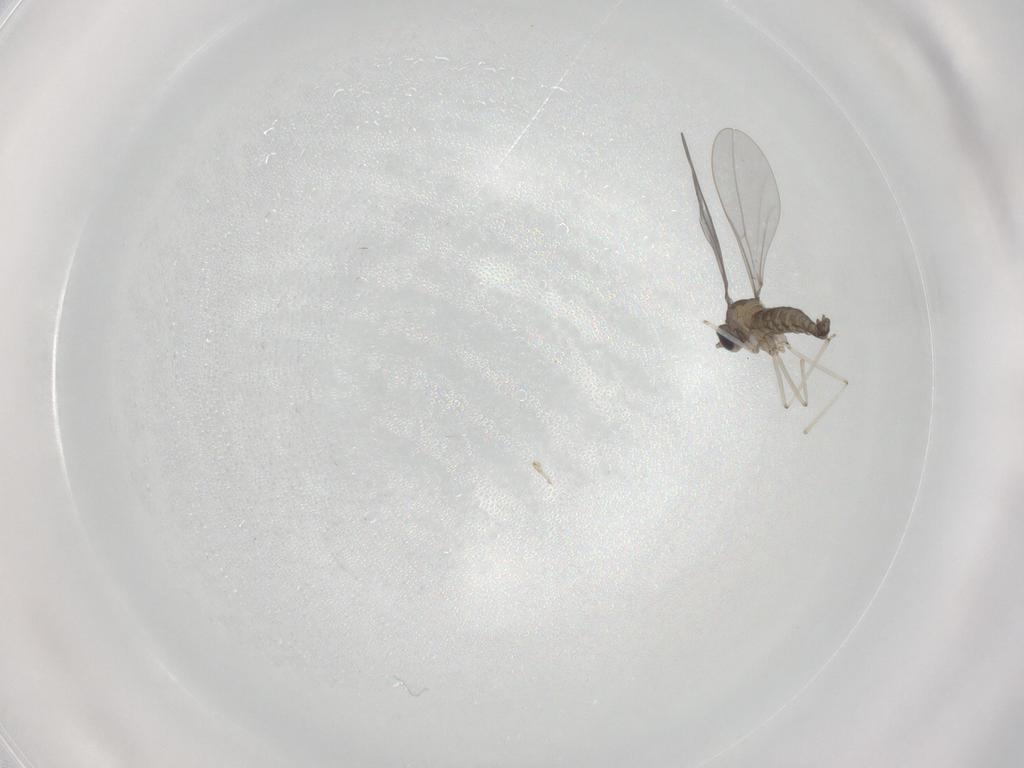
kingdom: Animalia
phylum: Arthropoda
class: Insecta
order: Diptera
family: Cecidomyiidae
